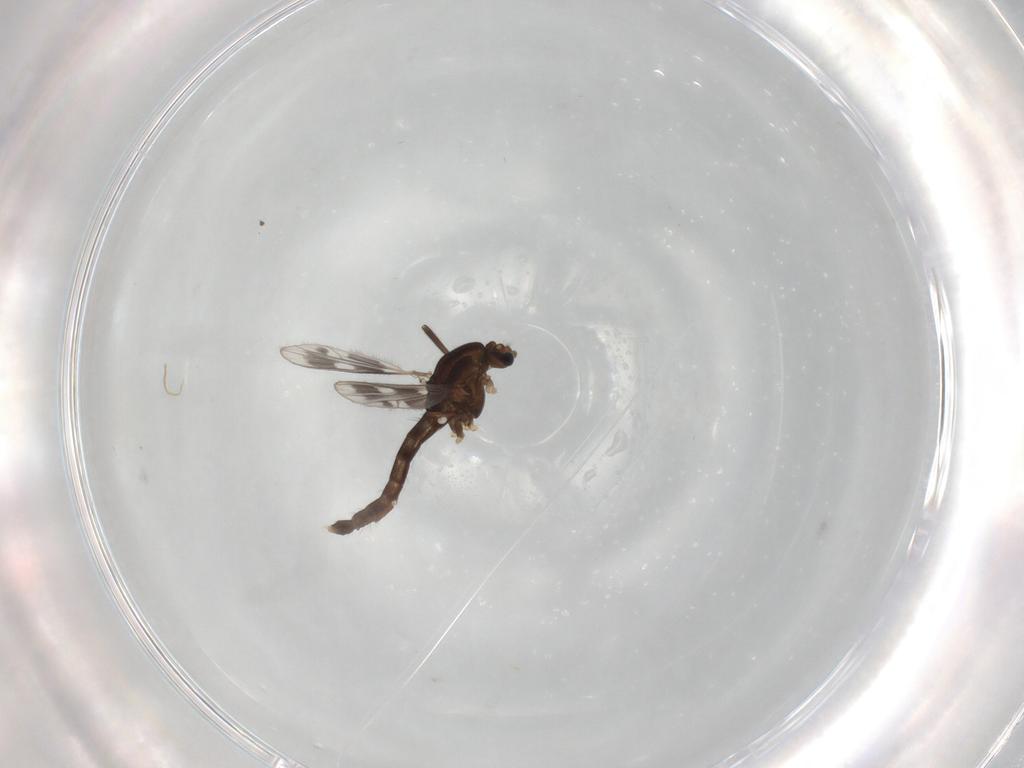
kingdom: Animalia
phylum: Arthropoda
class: Insecta
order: Diptera
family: Chironomidae
